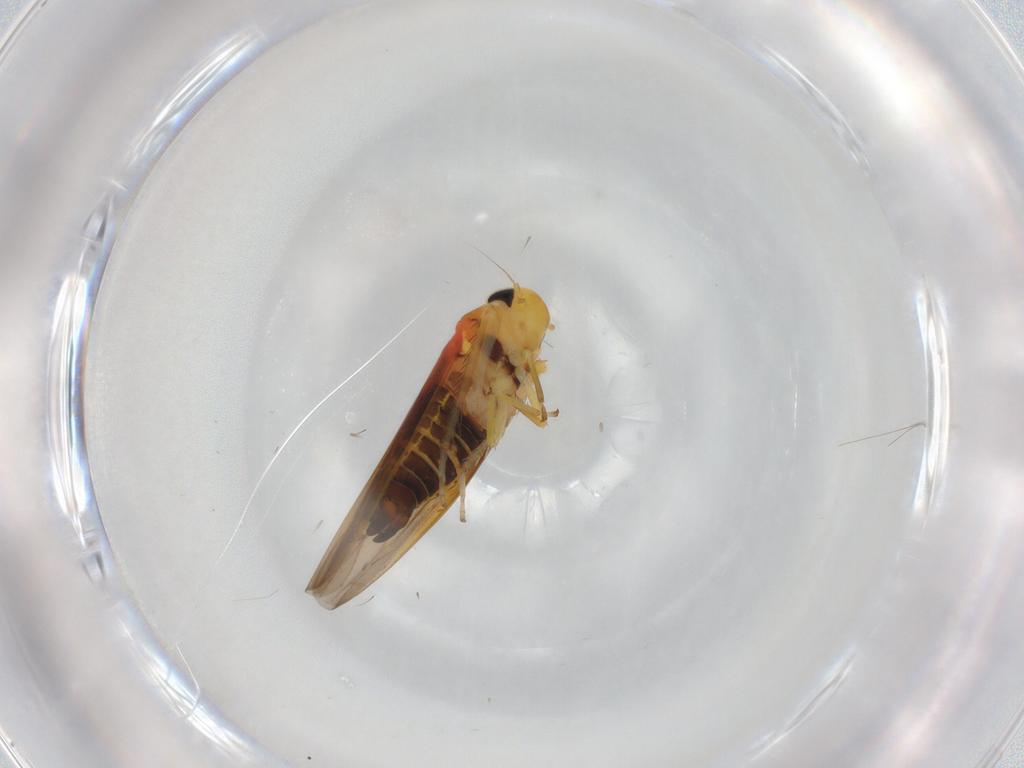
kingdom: Animalia
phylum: Arthropoda
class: Insecta
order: Hemiptera
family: Cicadellidae
